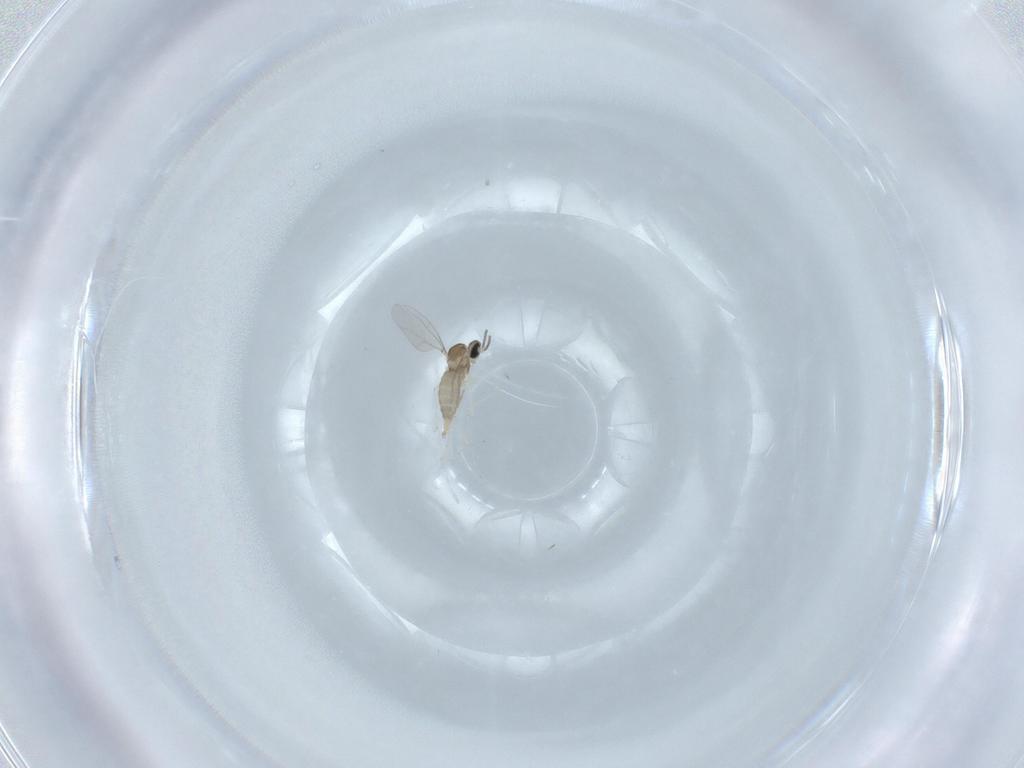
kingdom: Animalia
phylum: Arthropoda
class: Insecta
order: Diptera
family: Cecidomyiidae
